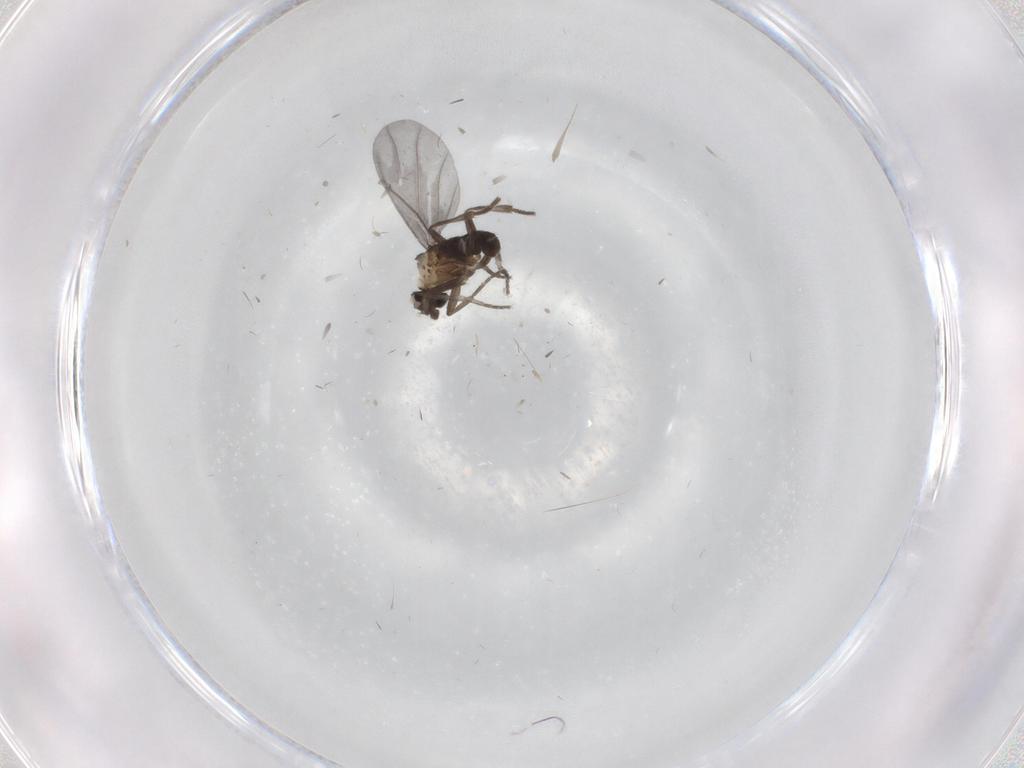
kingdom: Animalia
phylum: Arthropoda
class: Insecta
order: Diptera
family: Phoridae
